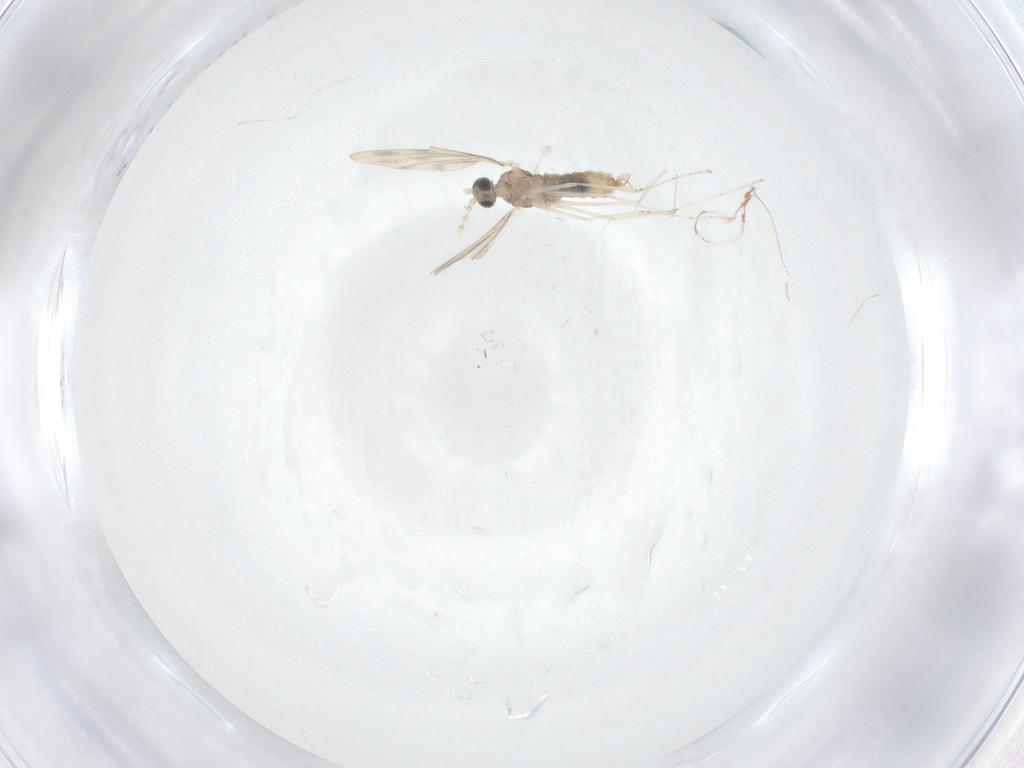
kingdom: Animalia
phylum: Arthropoda
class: Insecta
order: Diptera
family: Cecidomyiidae
